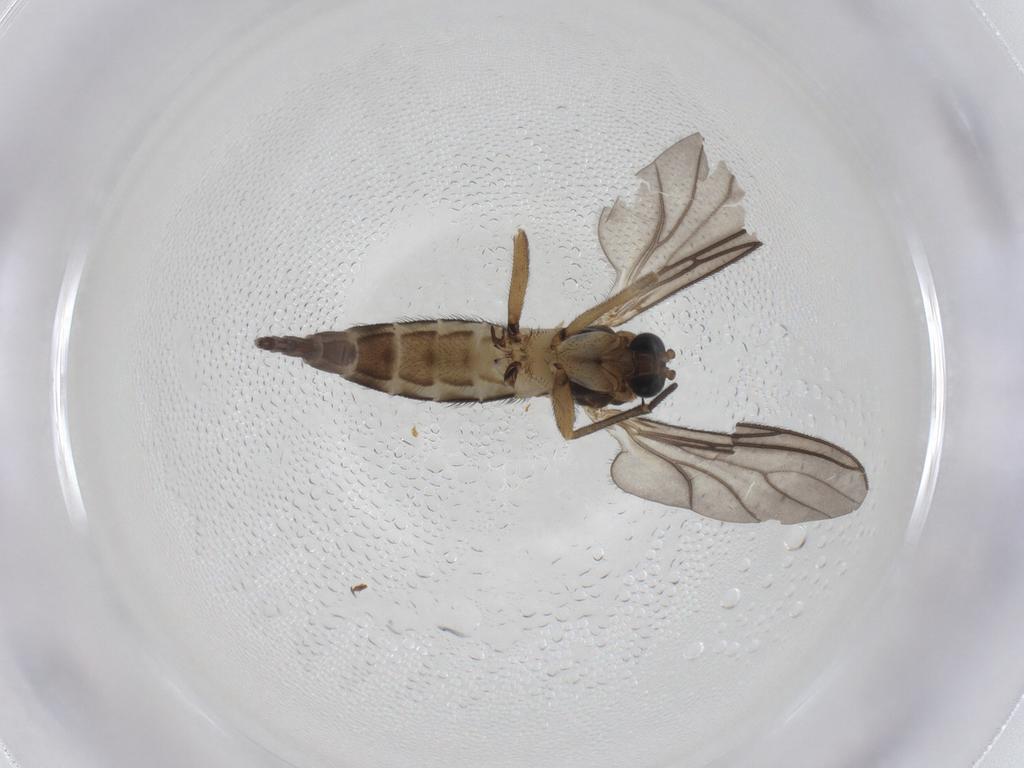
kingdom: Animalia
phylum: Arthropoda
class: Insecta
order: Diptera
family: Sciaridae
